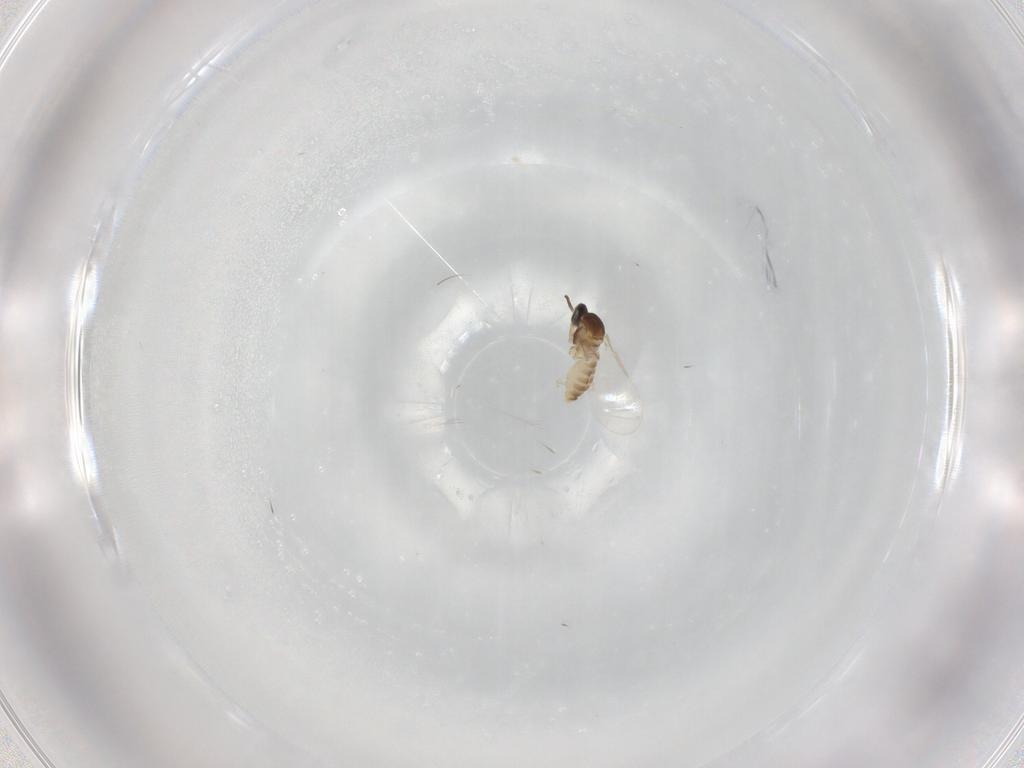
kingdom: Animalia
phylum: Arthropoda
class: Insecta
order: Diptera
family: Cecidomyiidae
